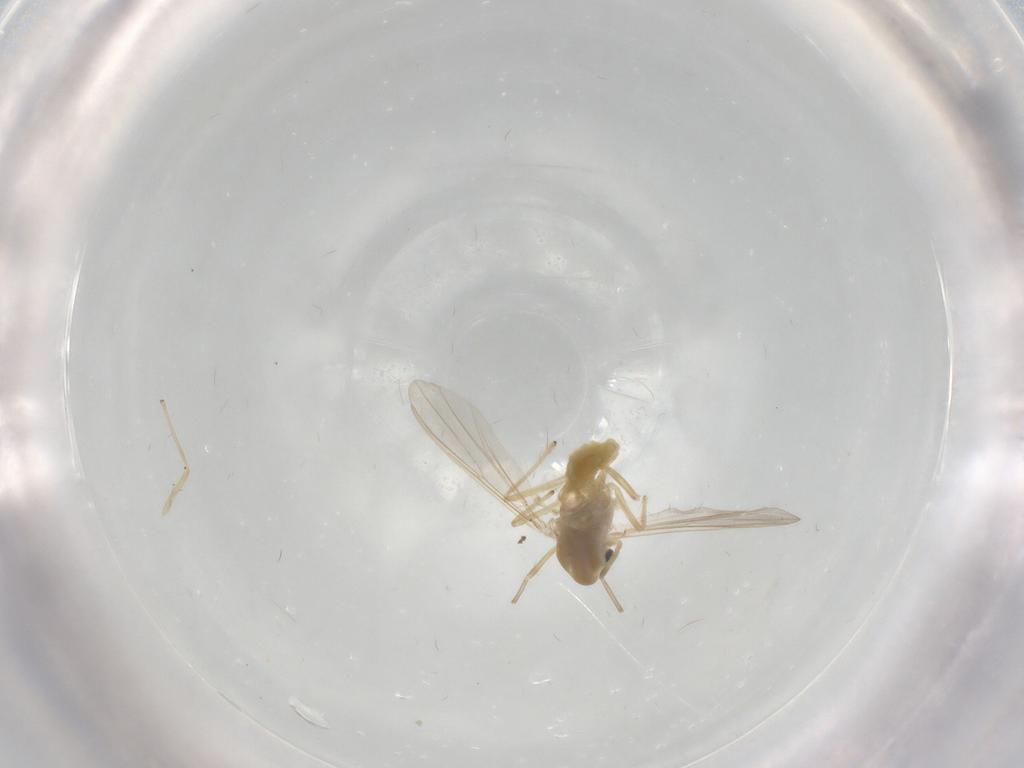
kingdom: Animalia
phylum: Arthropoda
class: Insecta
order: Diptera
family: Chironomidae
